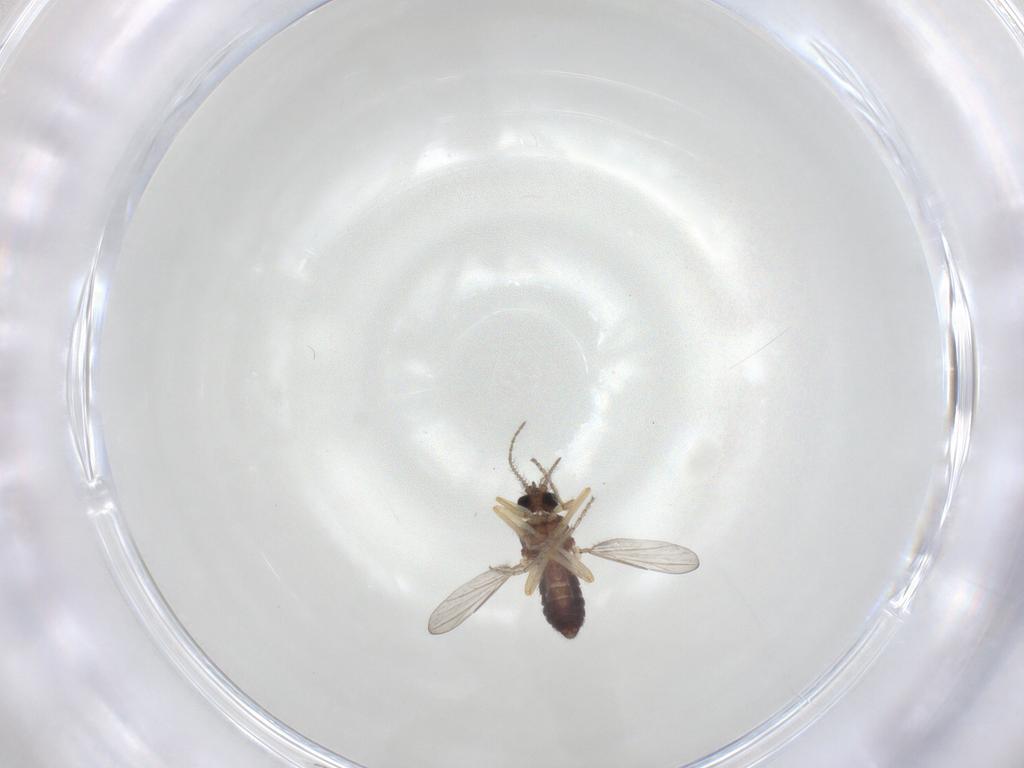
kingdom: Animalia
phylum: Arthropoda
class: Insecta
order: Diptera
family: Ceratopogonidae
